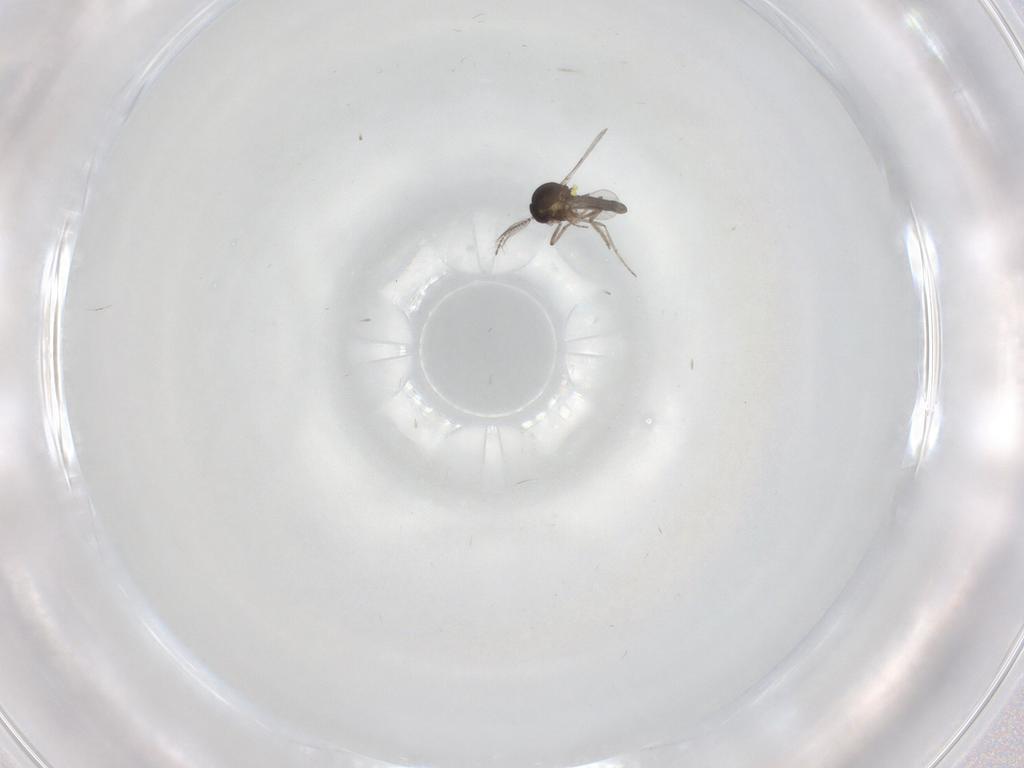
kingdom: Animalia
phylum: Arthropoda
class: Insecta
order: Diptera
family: Ceratopogonidae
